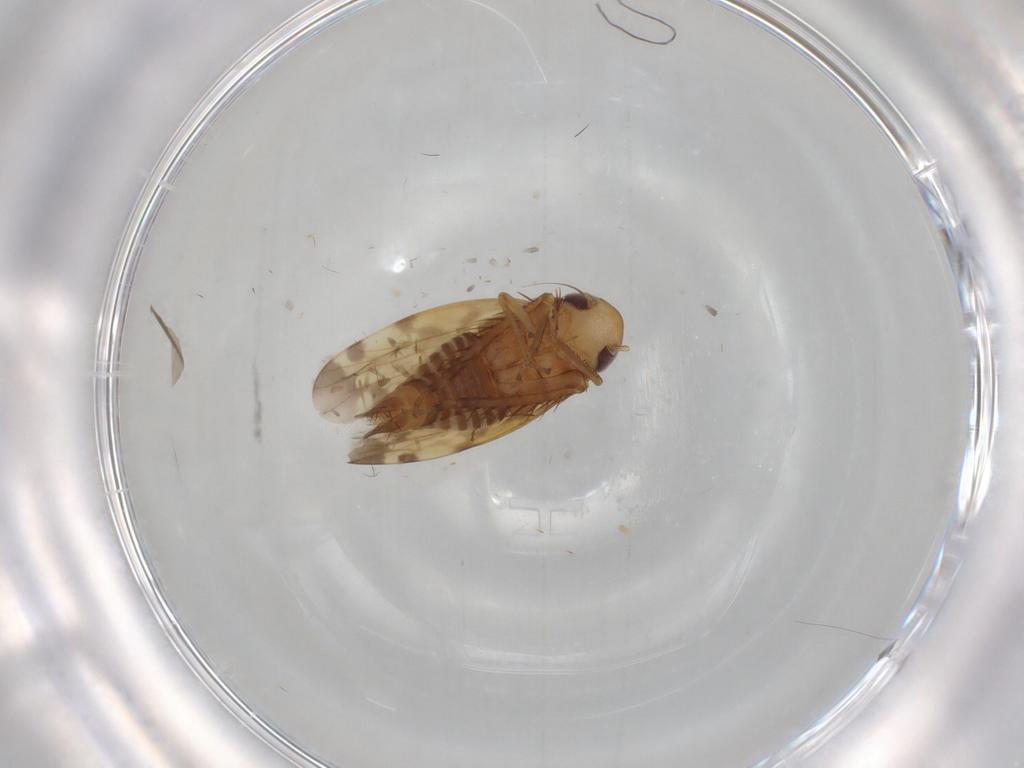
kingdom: Animalia
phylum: Arthropoda
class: Insecta
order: Hemiptera
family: Cicadellidae
